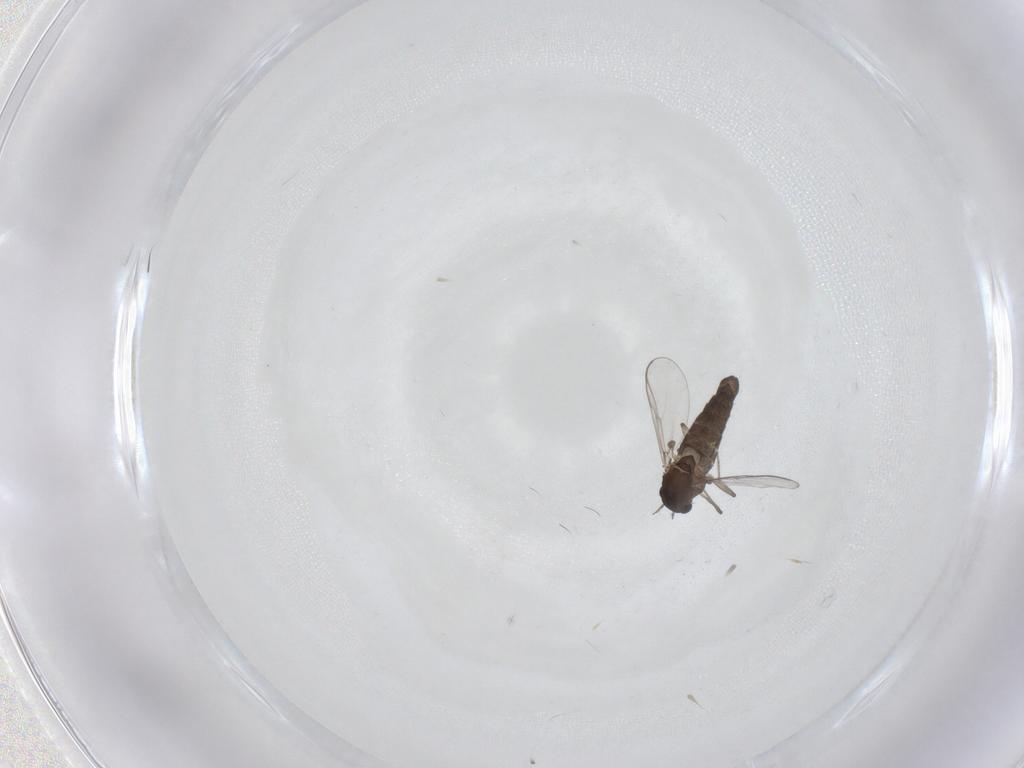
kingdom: Animalia
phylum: Arthropoda
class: Insecta
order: Diptera
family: Chironomidae
